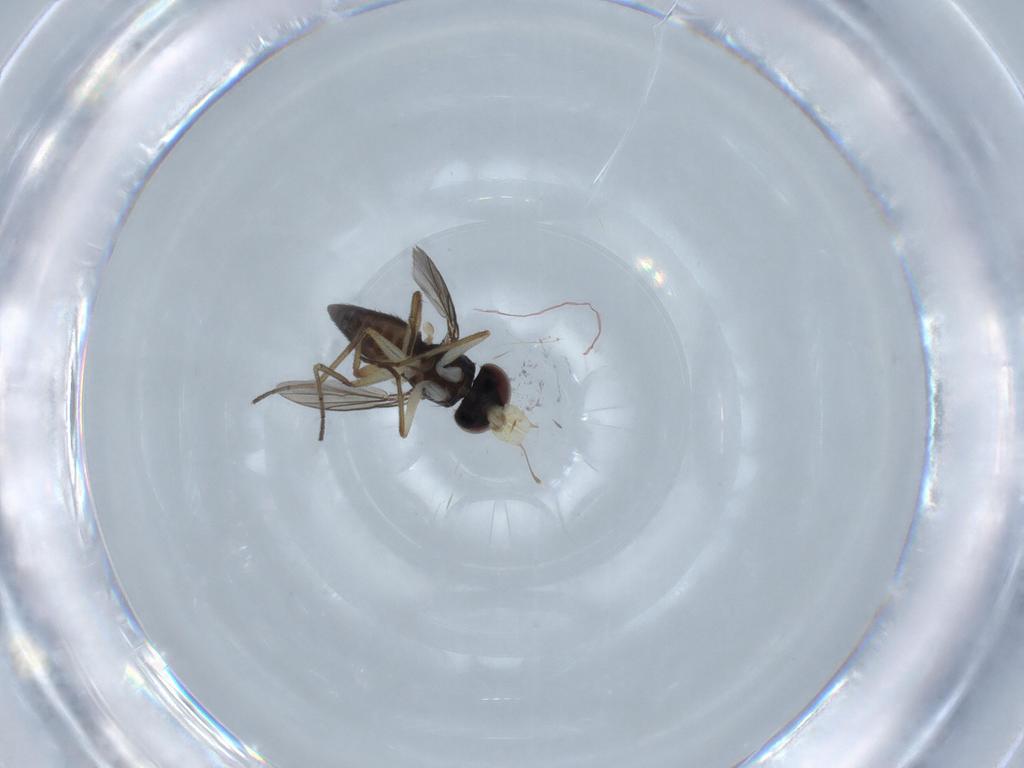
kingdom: Animalia
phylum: Arthropoda
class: Insecta
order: Diptera
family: Dolichopodidae
